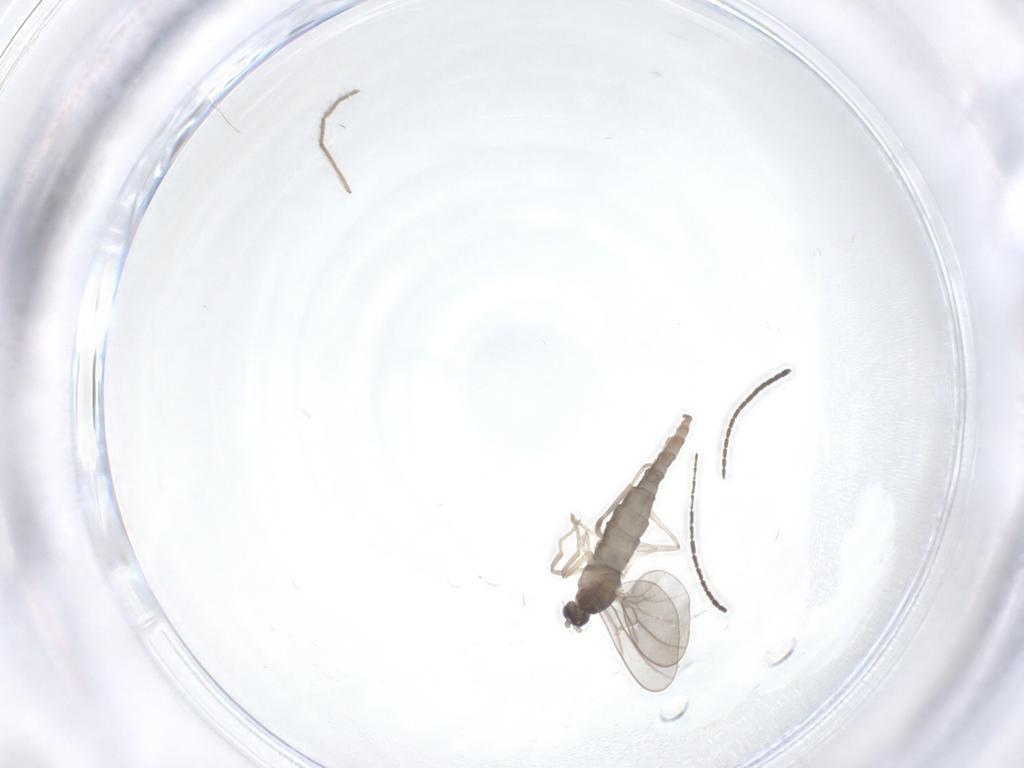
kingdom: Animalia
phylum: Arthropoda
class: Insecta
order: Diptera
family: Cecidomyiidae
